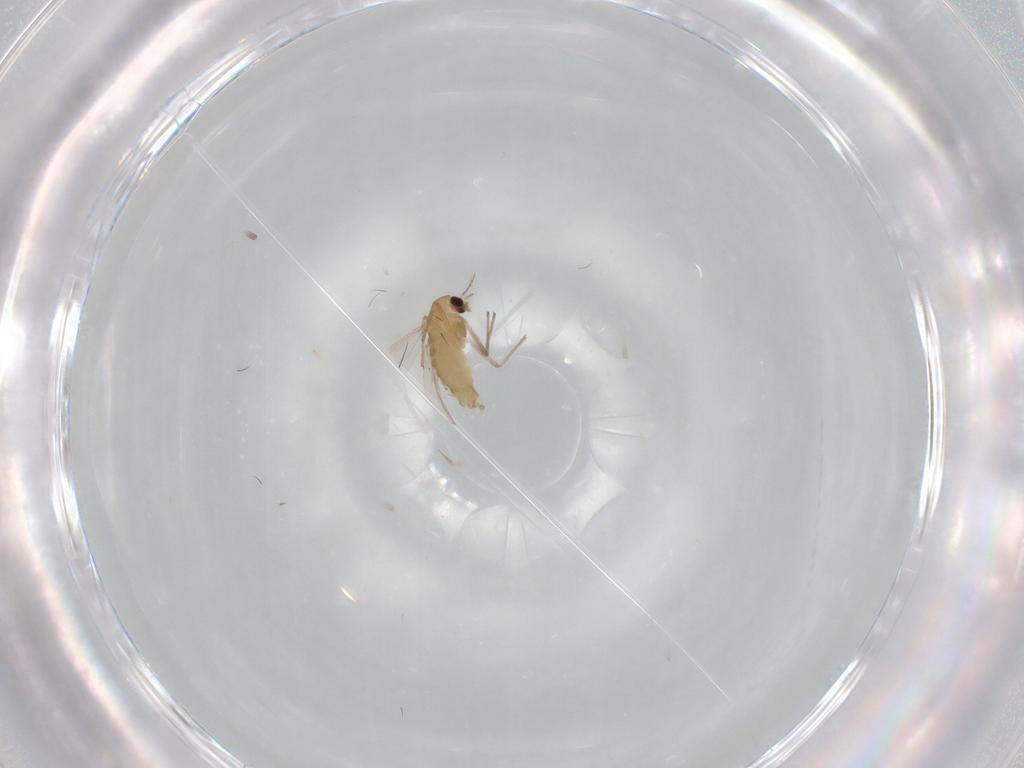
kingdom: Animalia
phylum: Arthropoda
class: Insecta
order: Diptera
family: Chironomidae
